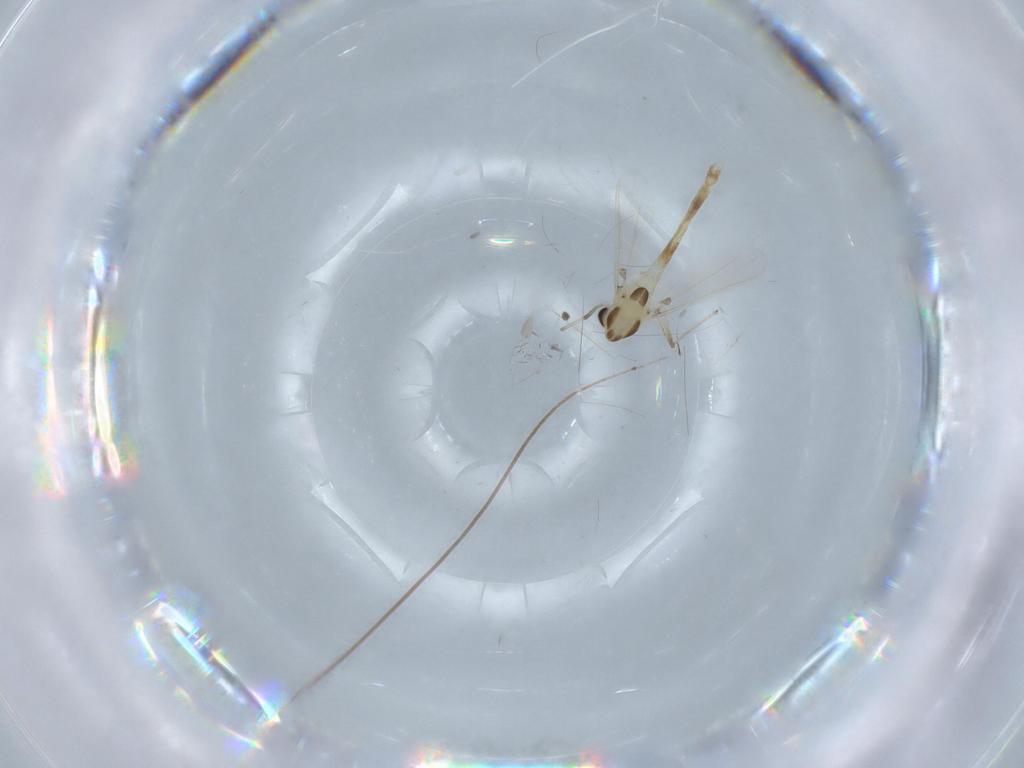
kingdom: Animalia
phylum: Arthropoda
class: Insecta
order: Diptera
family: Chironomidae
